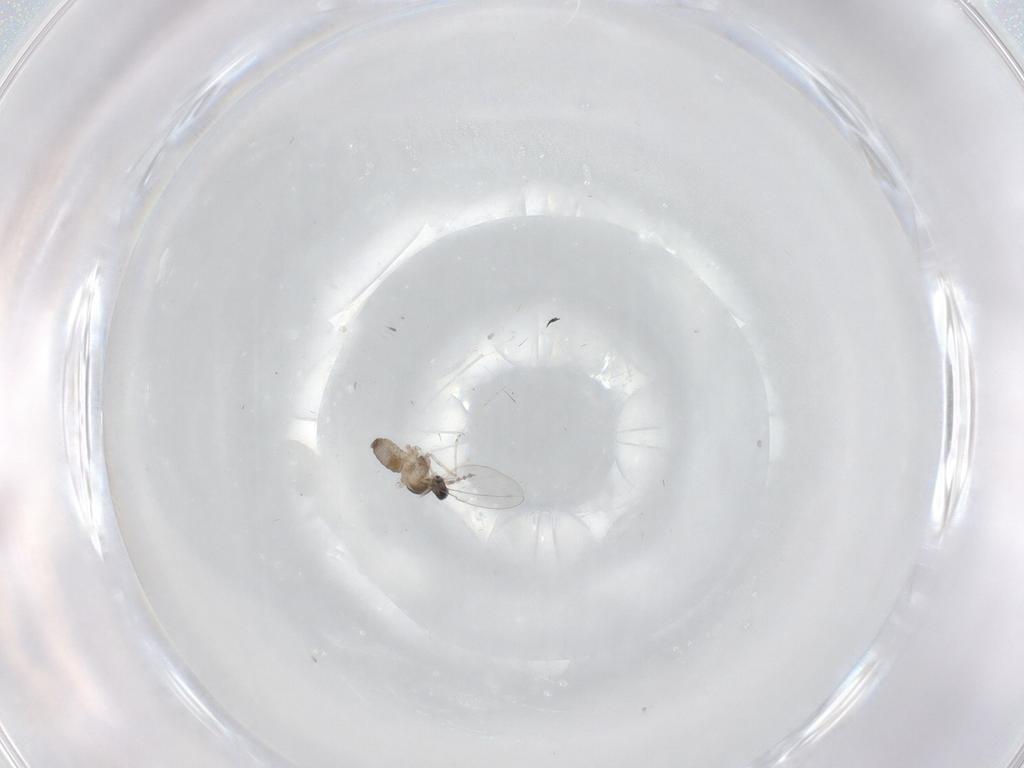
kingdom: Animalia
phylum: Arthropoda
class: Insecta
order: Diptera
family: Cecidomyiidae
